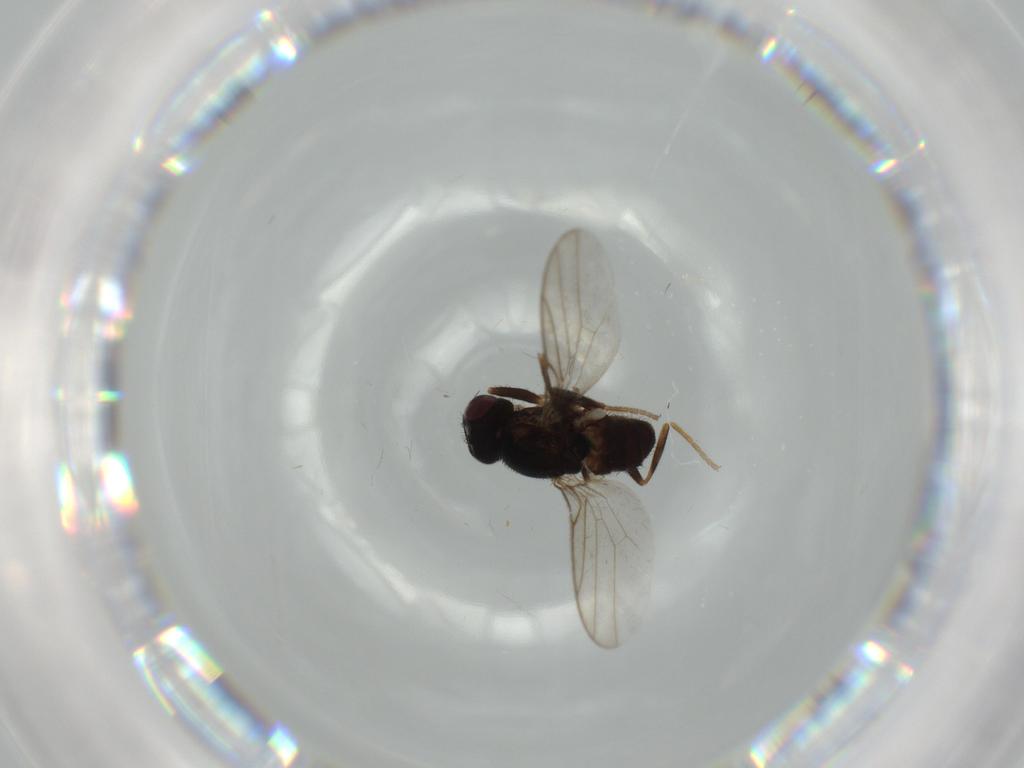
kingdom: Animalia
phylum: Arthropoda
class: Insecta
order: Diptera
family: Chloropidae
